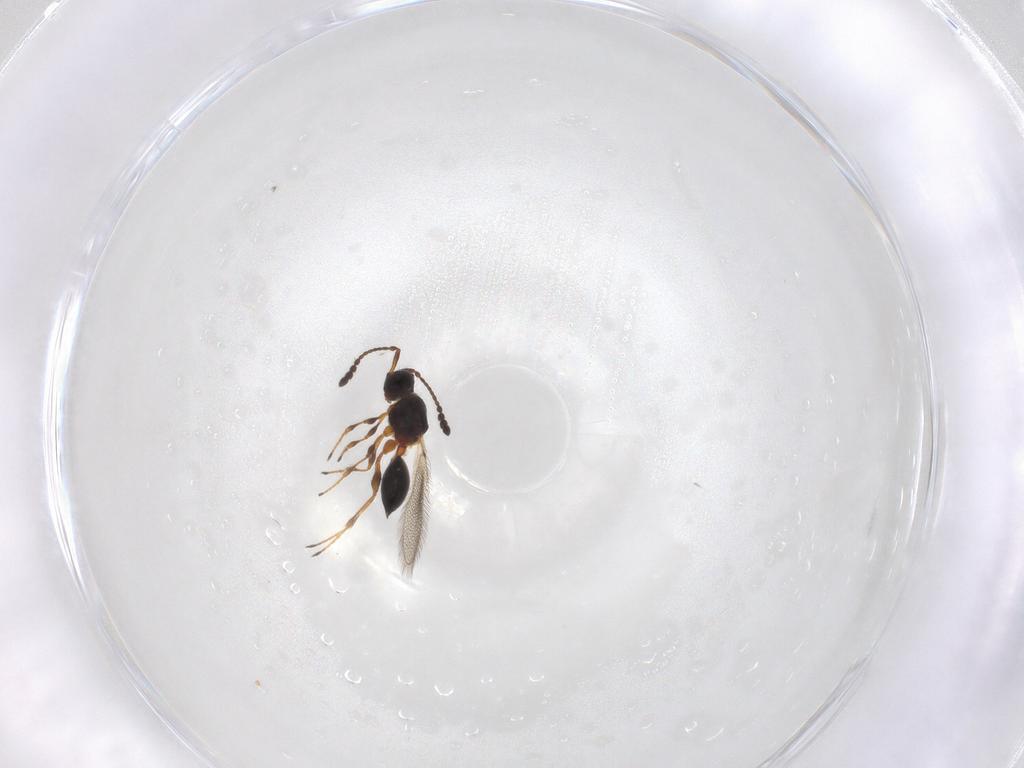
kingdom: Animalia
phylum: Arthropoda
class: Insecta
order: Hymenoptera
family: Diapriidae
